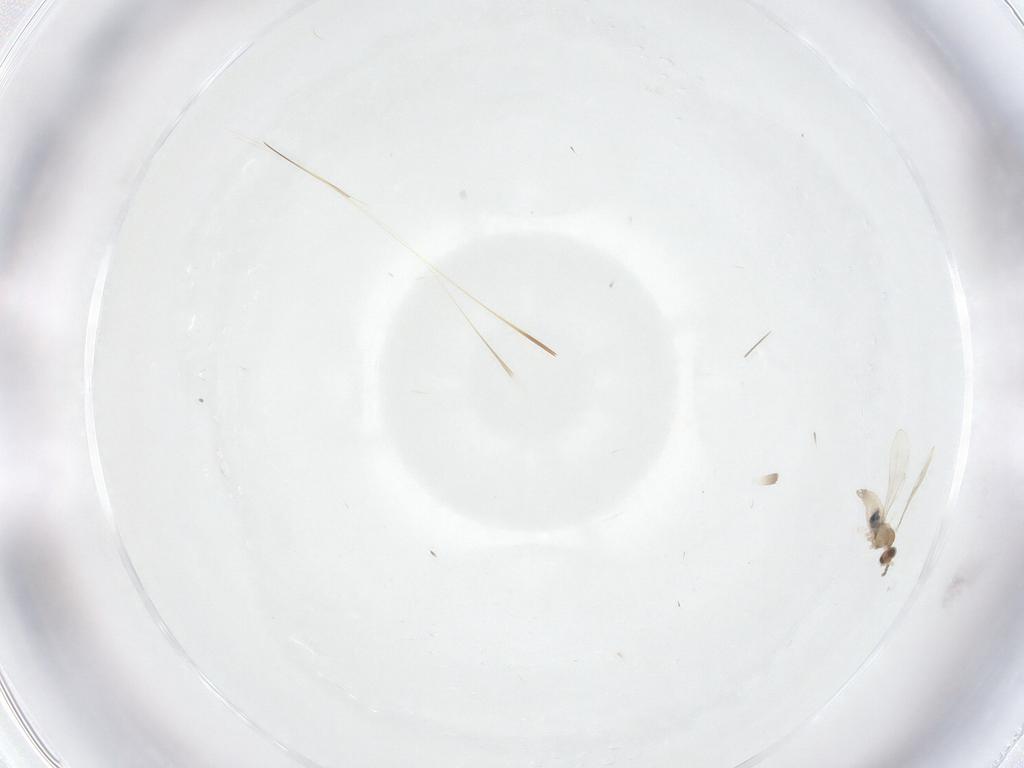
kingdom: Animalia
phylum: Arthropoda
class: Insecta
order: Diptera
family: Cecidomyiidae
